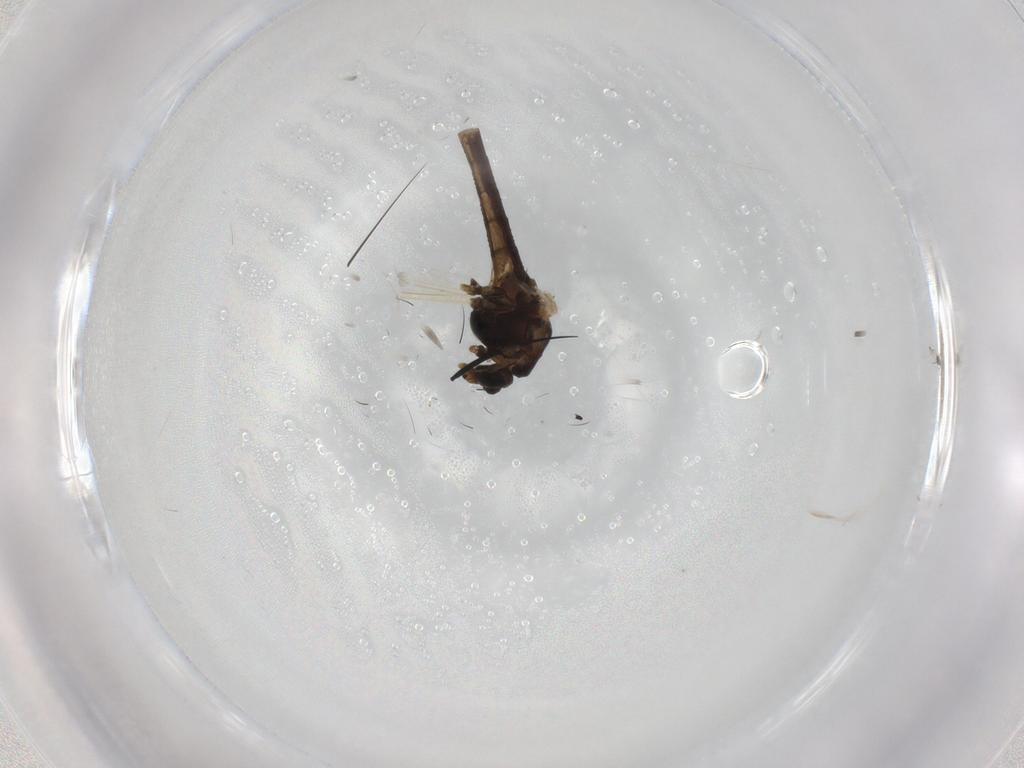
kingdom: Animalia
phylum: Arthropoda
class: Insecta
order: Diptera
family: Chironomidae
